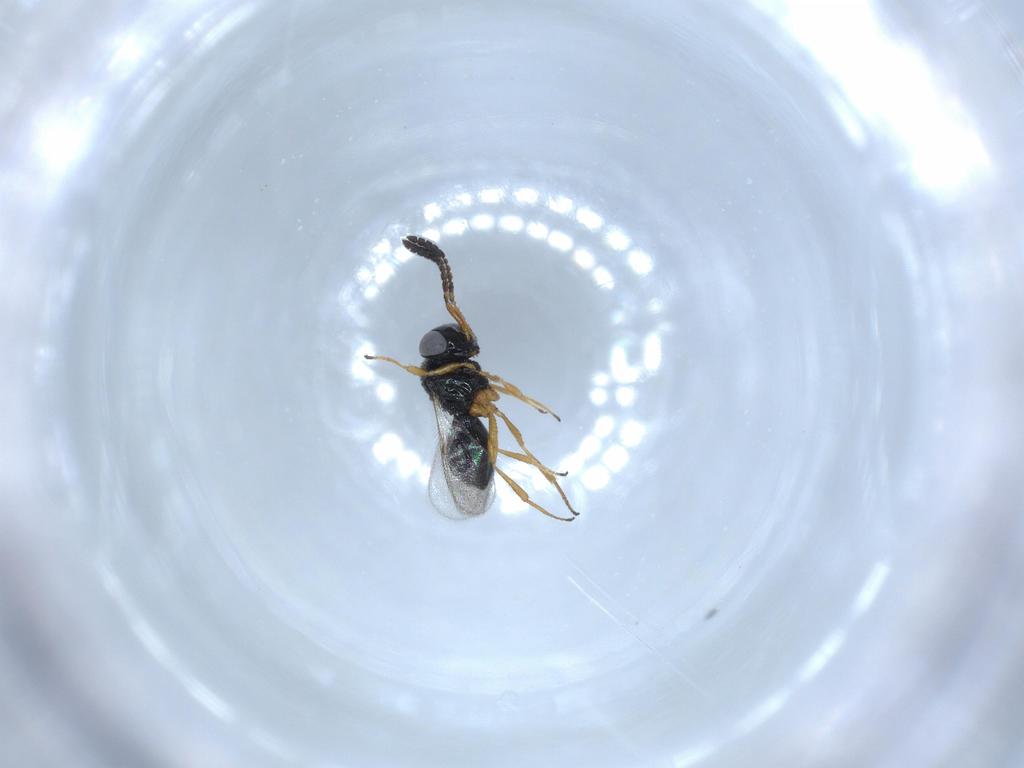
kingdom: Animalia
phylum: Arthropoda
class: Insecta
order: Hymenoptera
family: Scelionidae
